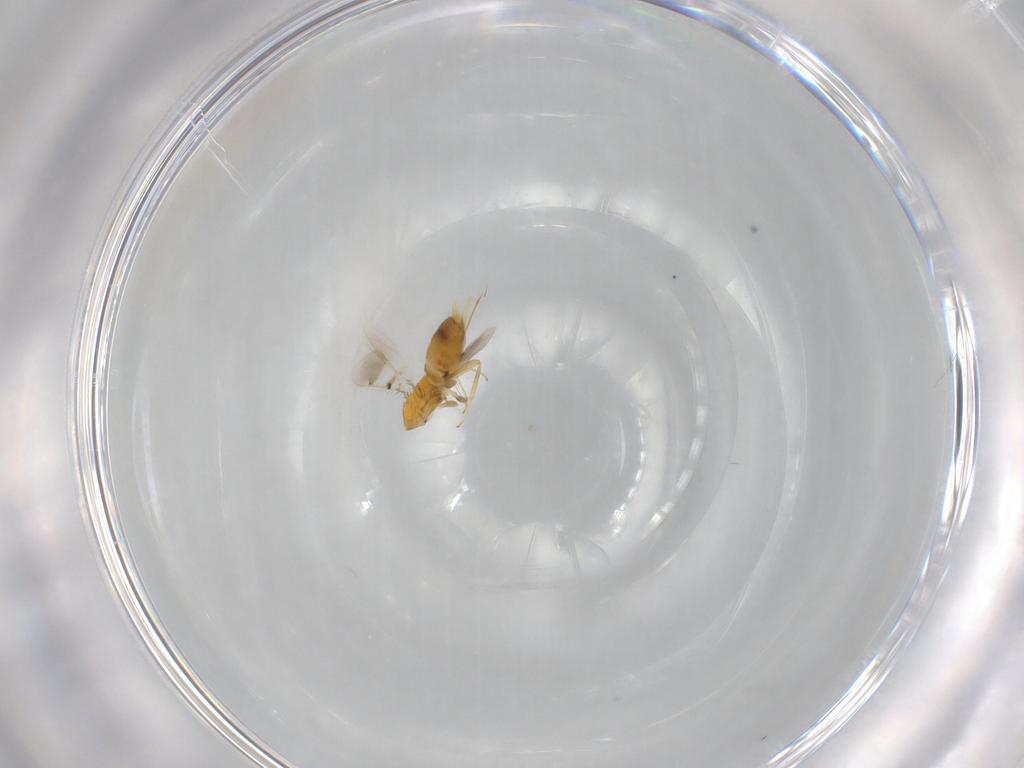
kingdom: Animalia
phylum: Arthropoda
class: Insecta
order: Hymenoptera
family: Aphelinidae
